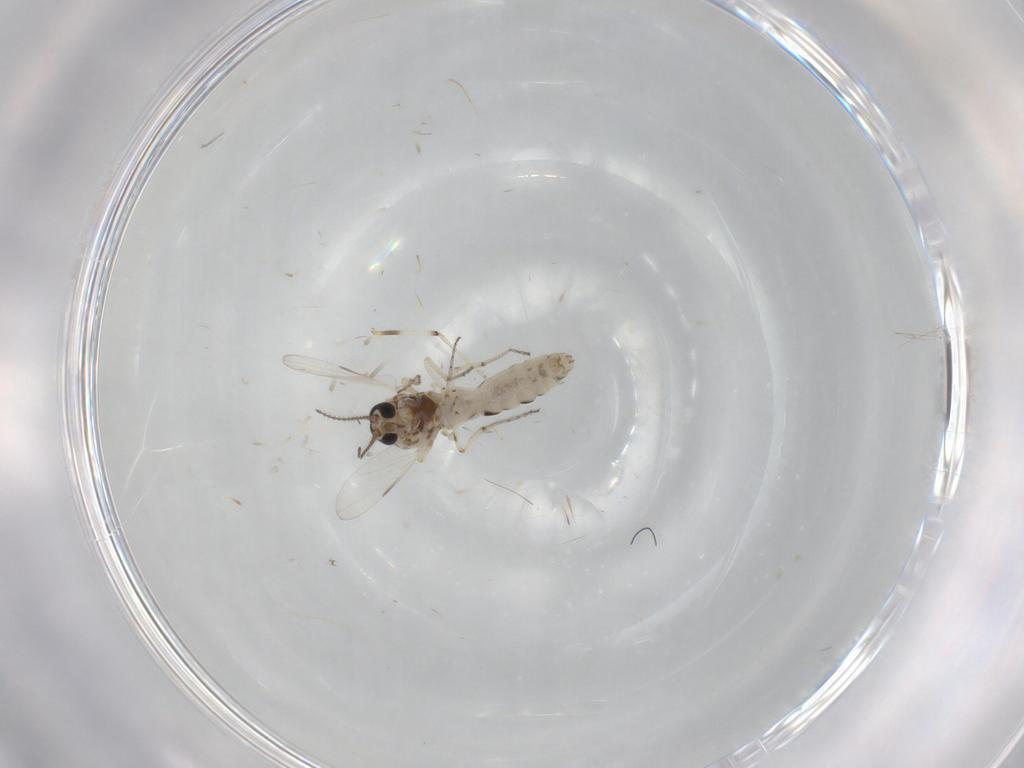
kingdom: Animalia
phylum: Arthropoda
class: Insecta
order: Diptera
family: Ceratopogonidae
